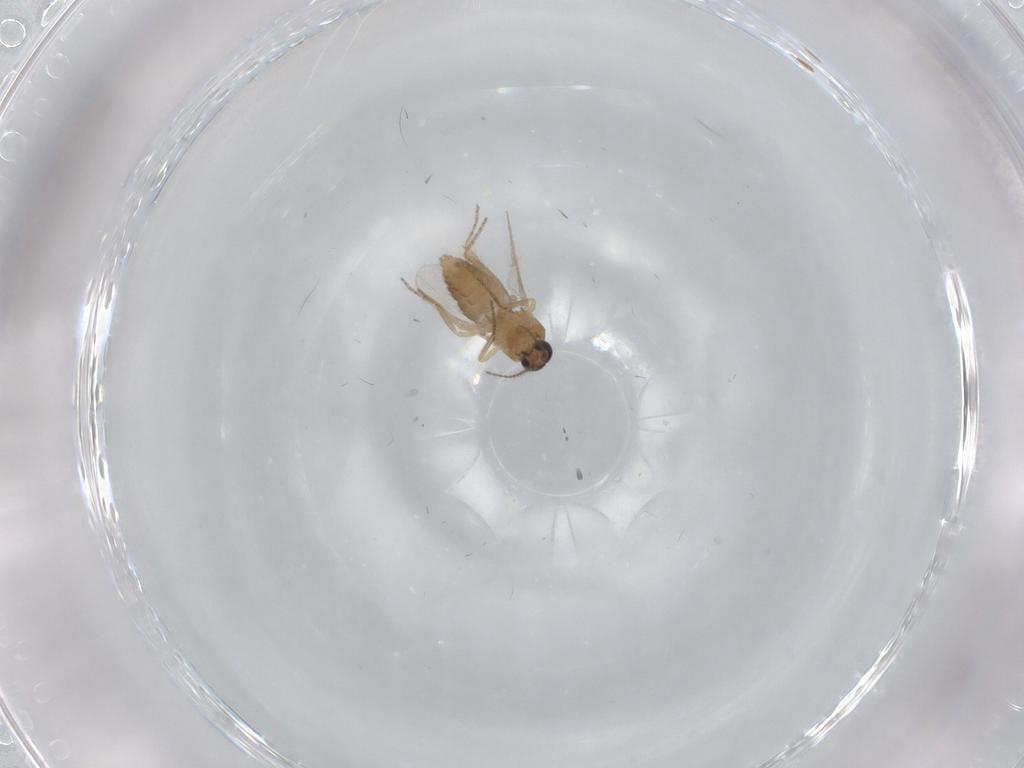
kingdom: Animalia
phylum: Arthropoda
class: Insecta
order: Diptera
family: Ceratopogonidae
